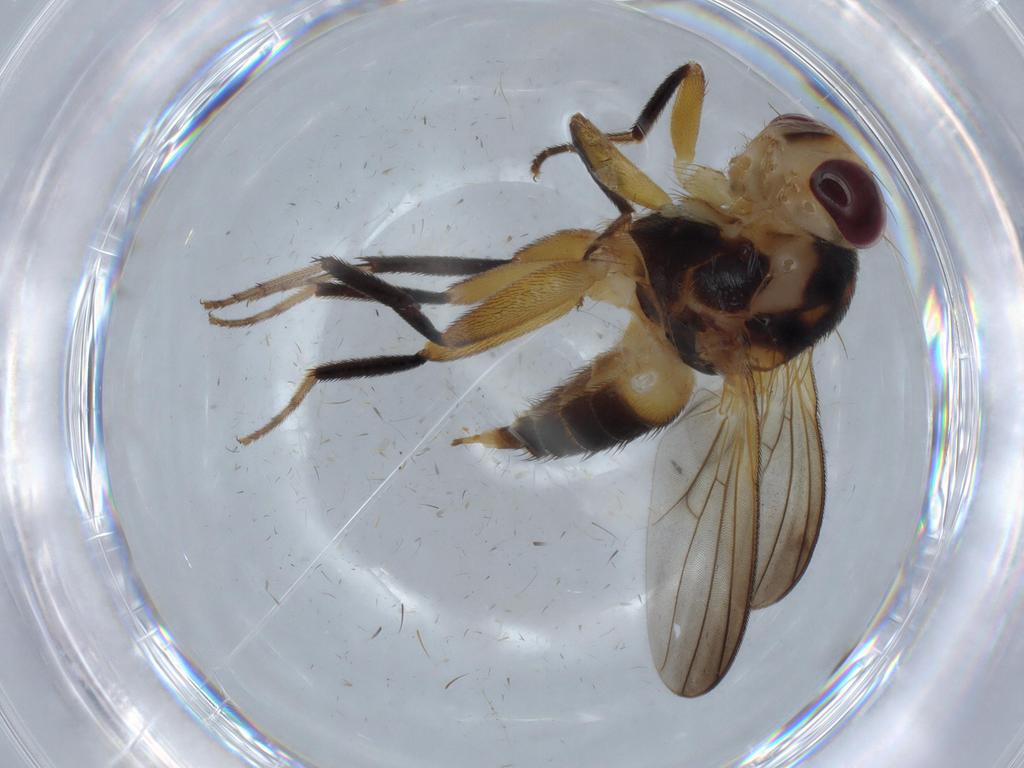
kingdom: Animalia
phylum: Arthropoda
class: Insecta
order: Diptera
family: Heleomyzidae
